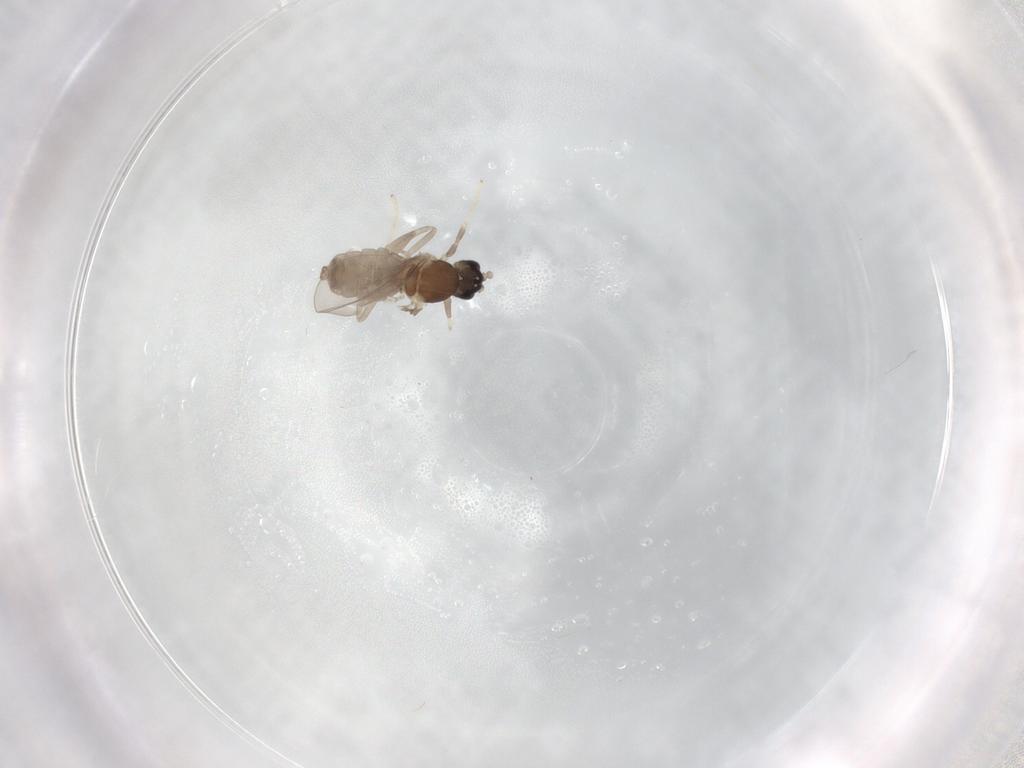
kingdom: Animalia
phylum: Arthropoda
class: Insecta
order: Diptera
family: Cecidomyiidae
